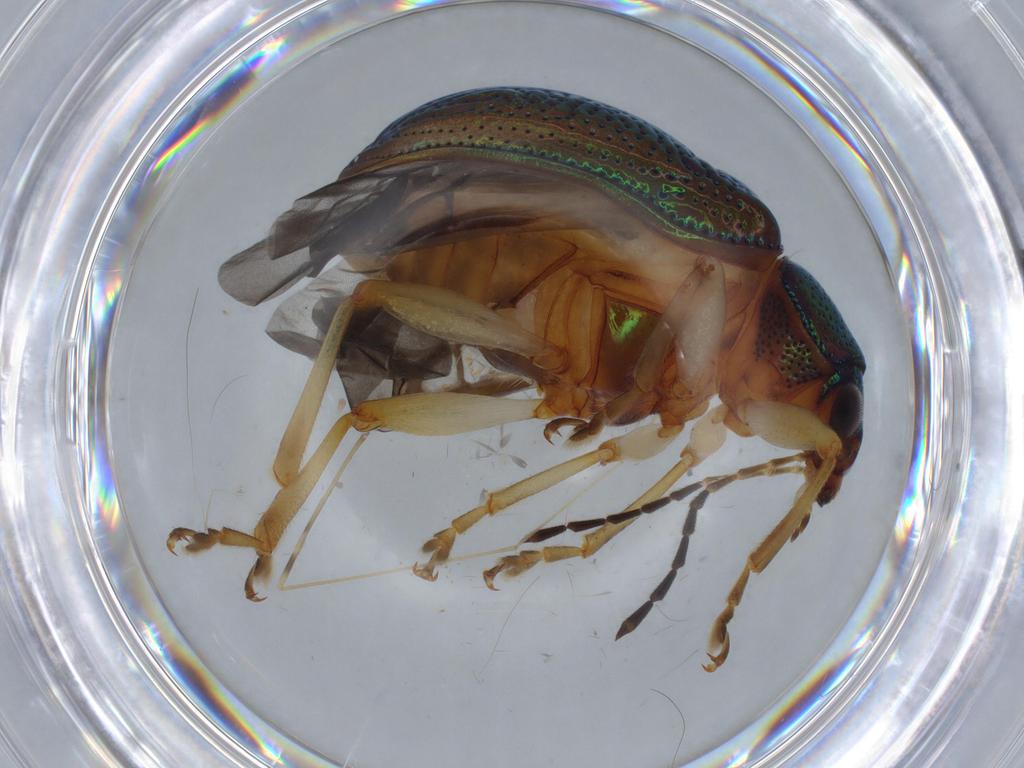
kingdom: Animalia
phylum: Arthropoda
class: Insecta
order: Coleoptera
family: Chrysomelidae
